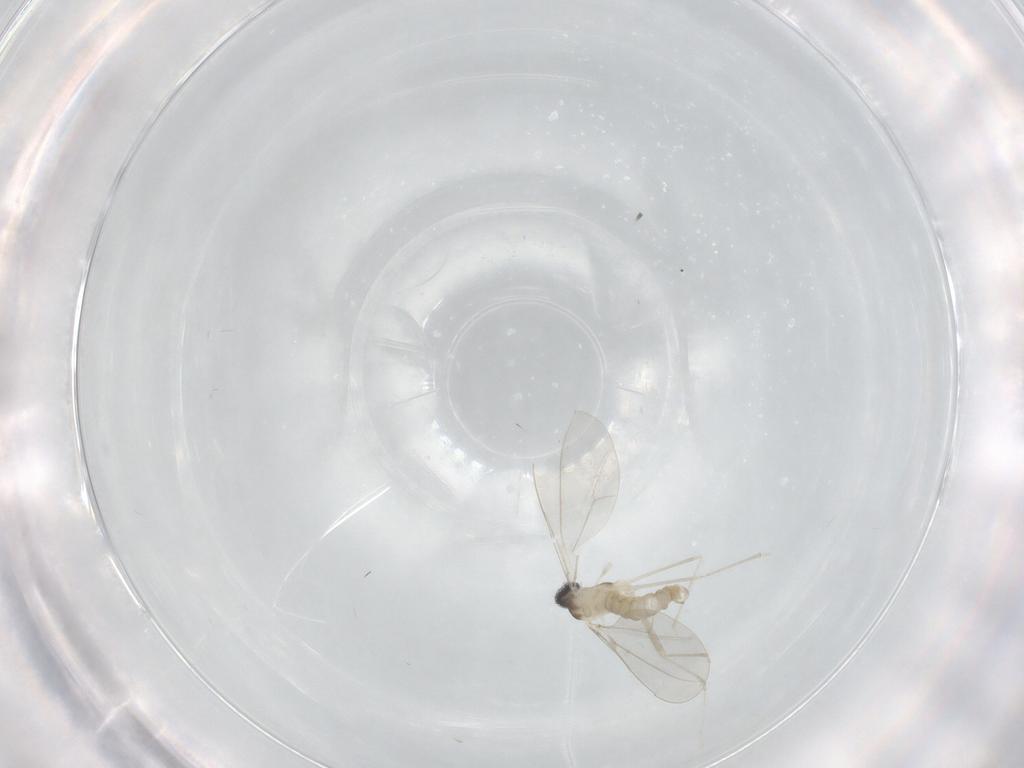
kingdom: Animalia
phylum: Arthropoda
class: Insecta
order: Diptera
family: Cecidomyiidae
